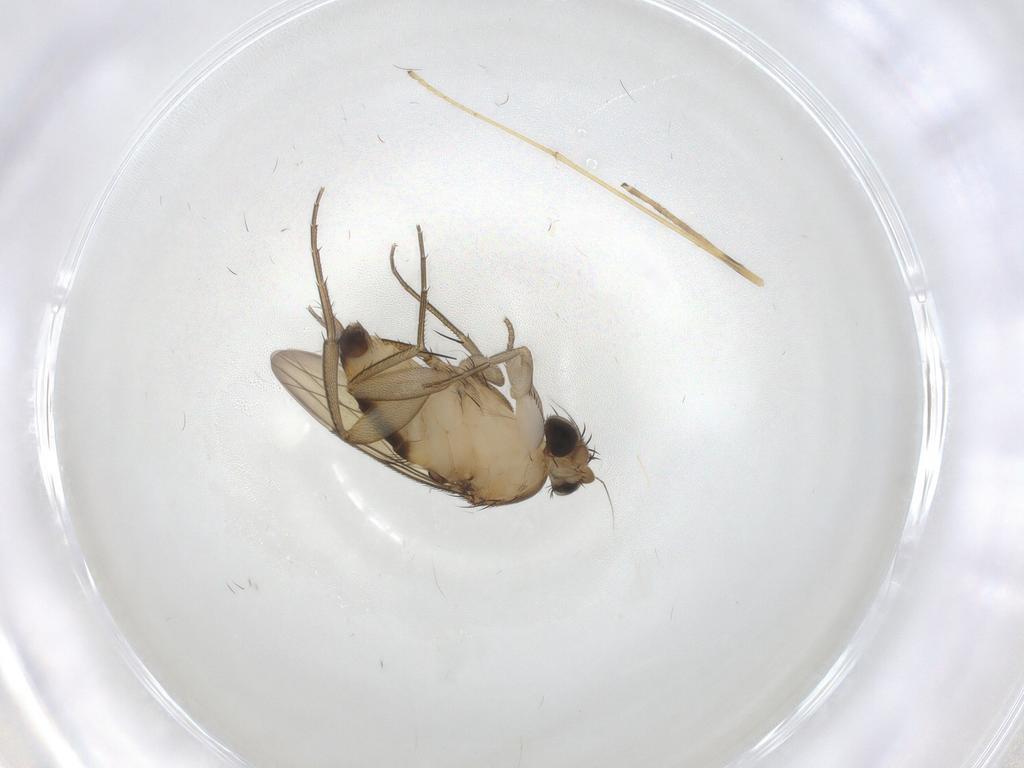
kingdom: Animalia
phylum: Arthropoda
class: Insecta
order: Diptera
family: Limoniidae
